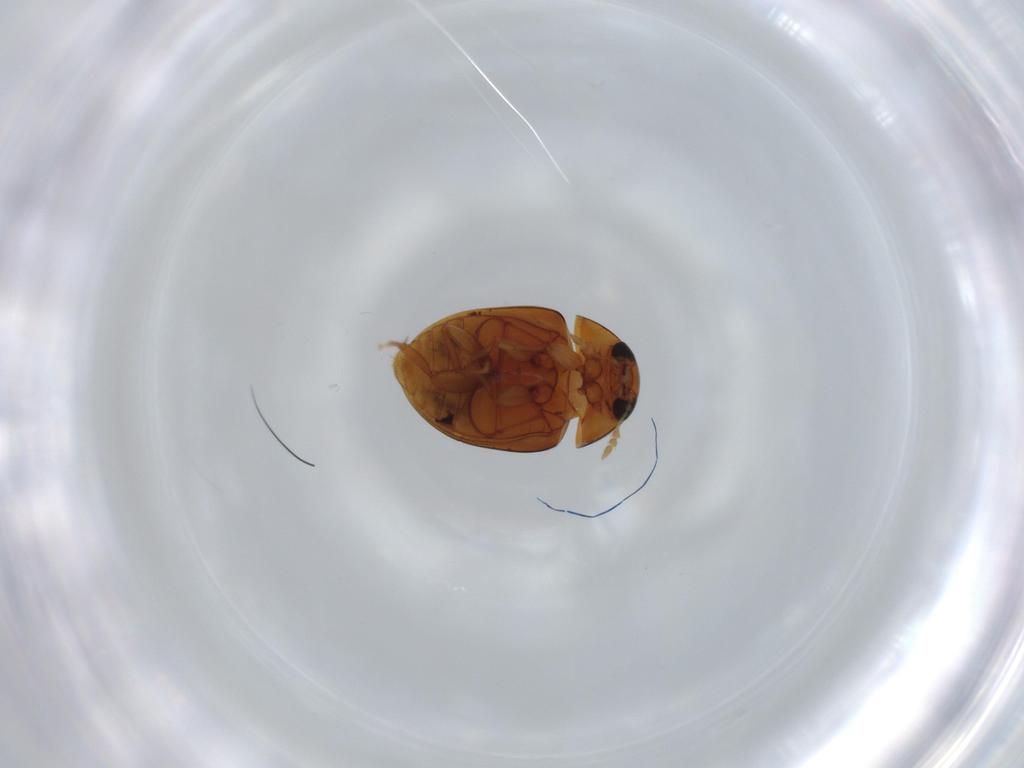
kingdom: Animalia
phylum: Arthropoda
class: Insecta
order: Coleoptera
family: Phalacridae
